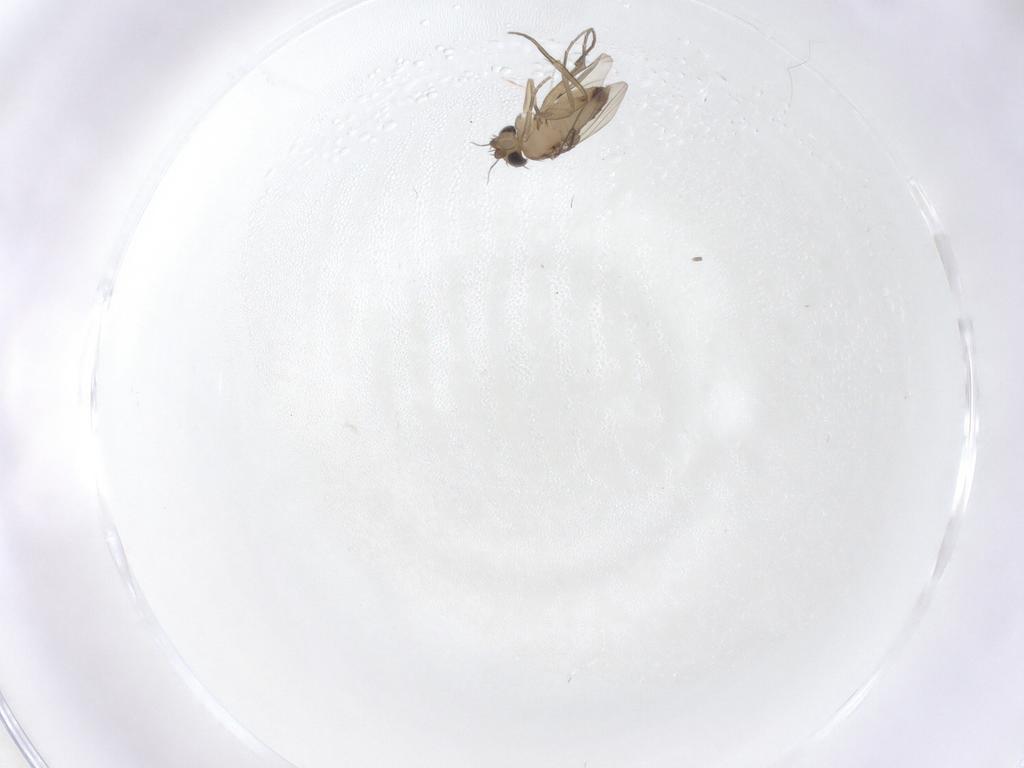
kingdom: Animalia
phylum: Arthropoda
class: Insecta
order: Diptera
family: Phoridae
